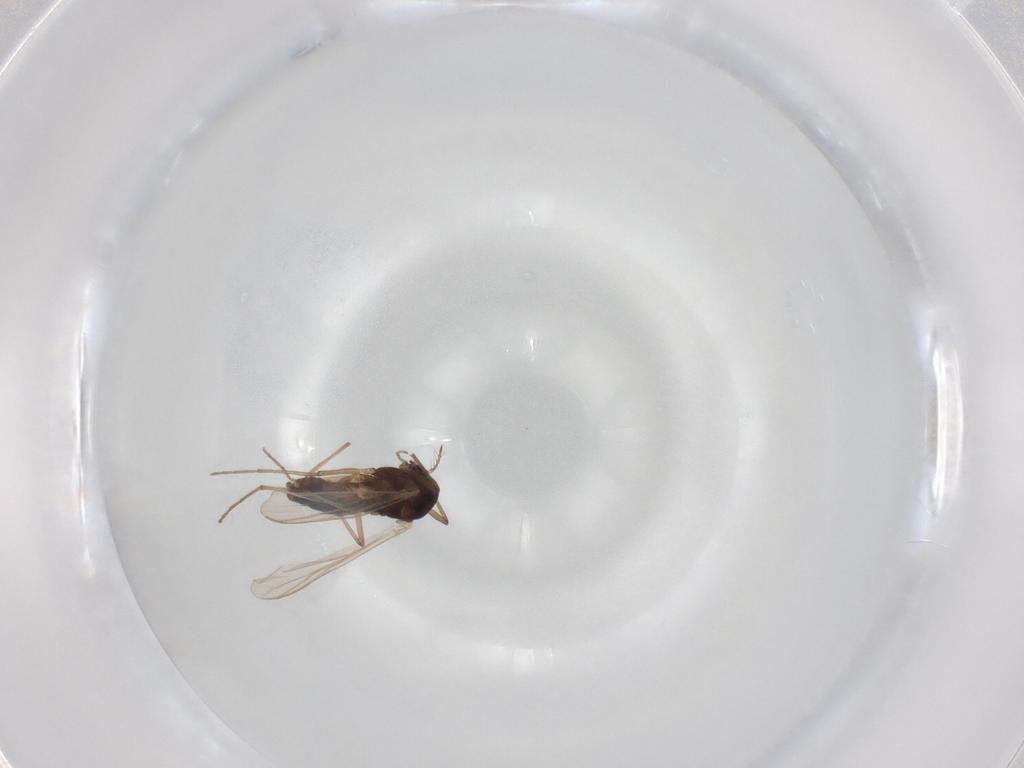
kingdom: Animalia
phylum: Arthropoda
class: Insecta
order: Diptera
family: Chironomidae
